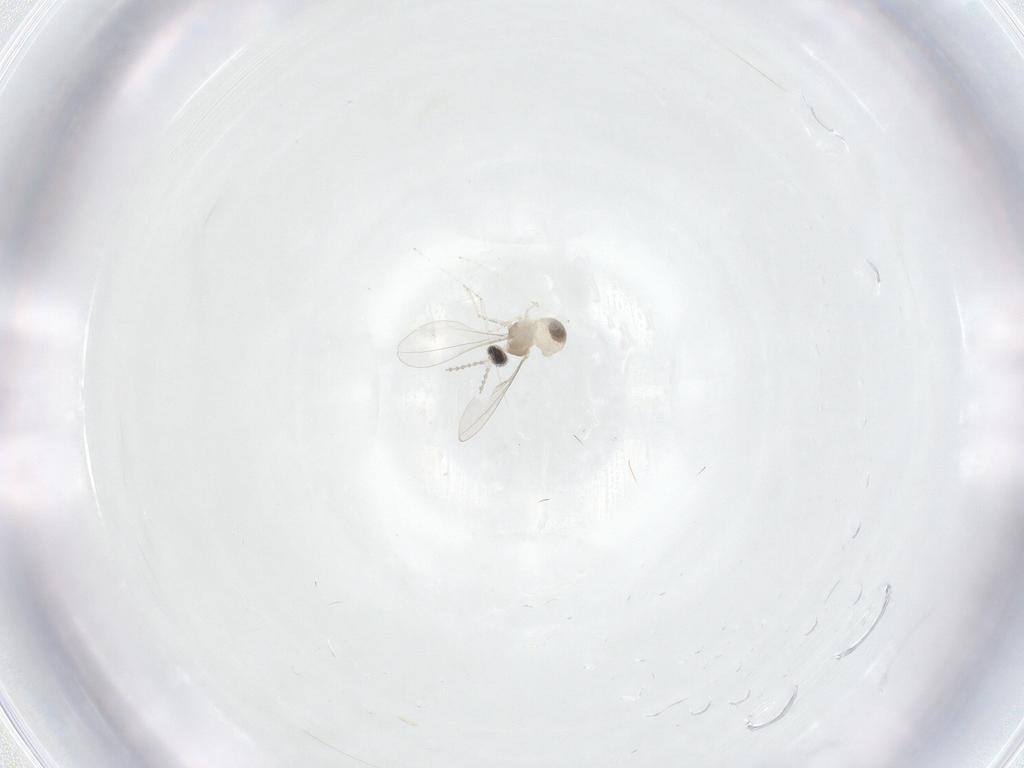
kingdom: Animalia
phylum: Arthropoda
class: Insecta
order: Diptera
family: Cecidomyiidae
